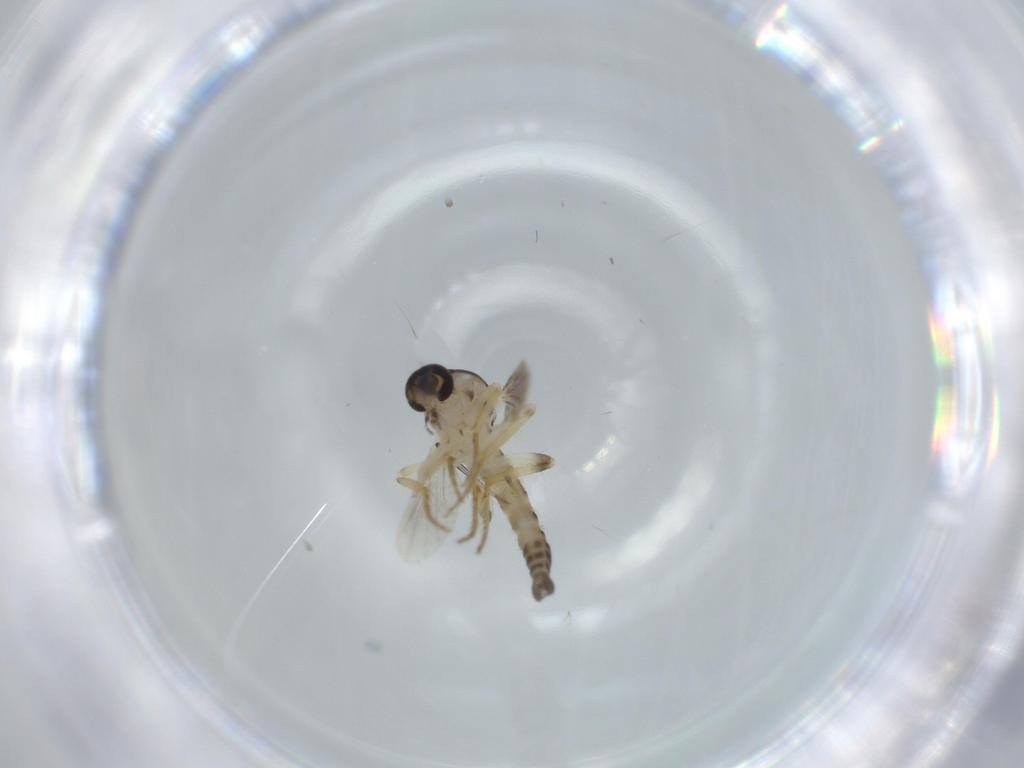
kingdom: Animalia
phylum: Arthropoda
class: Insecta
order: Diptera
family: Ceratopogonidae
